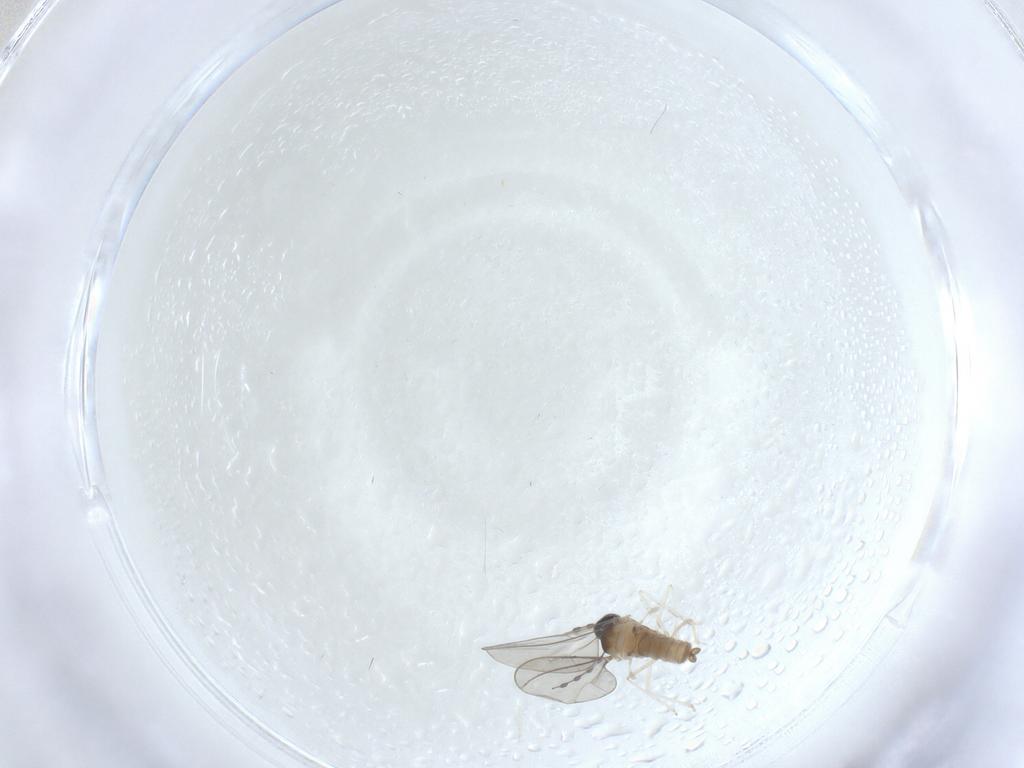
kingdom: Animalia
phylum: Arthropoda
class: Insecta
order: Diptera
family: Cecidomyiidae
